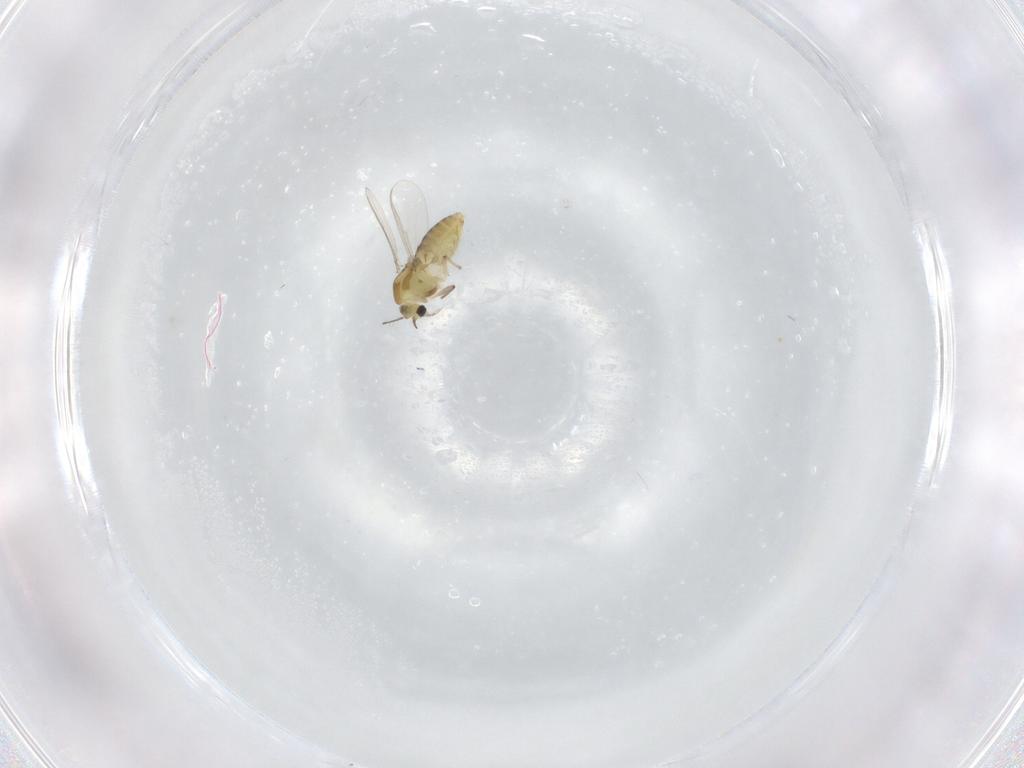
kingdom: Animalia
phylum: Arthropoda
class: Insecta
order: Diptera
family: Chironomidae
